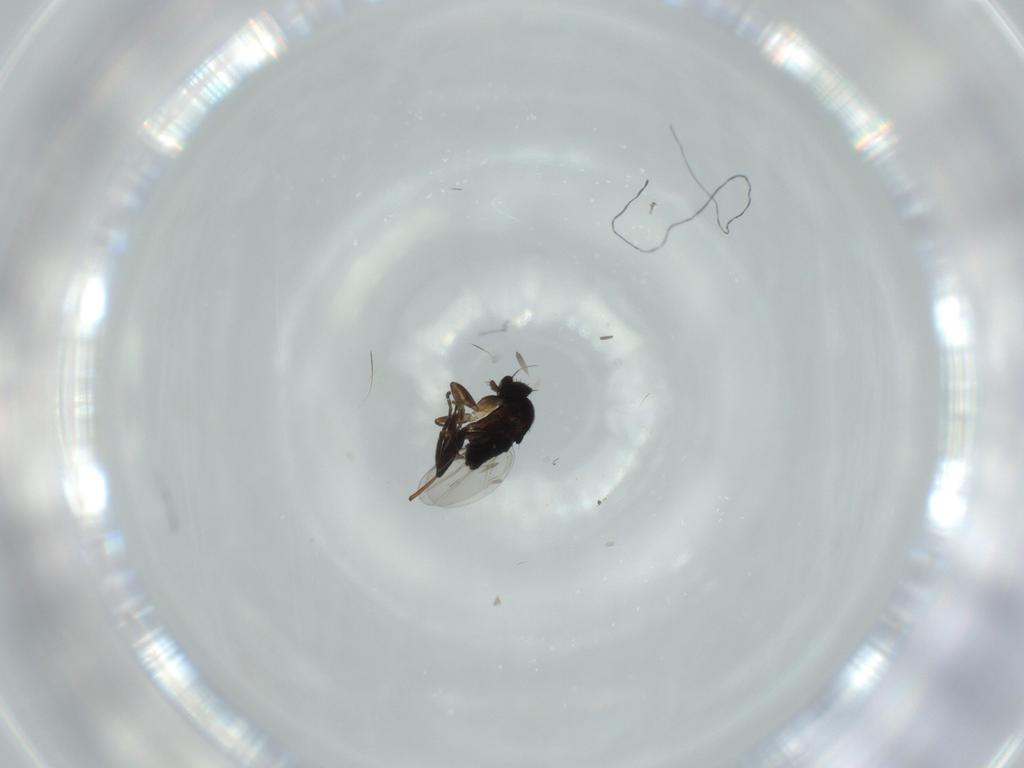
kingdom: Animalia
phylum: Arthropoda
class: Insecta
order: Diptera
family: Phoridae
